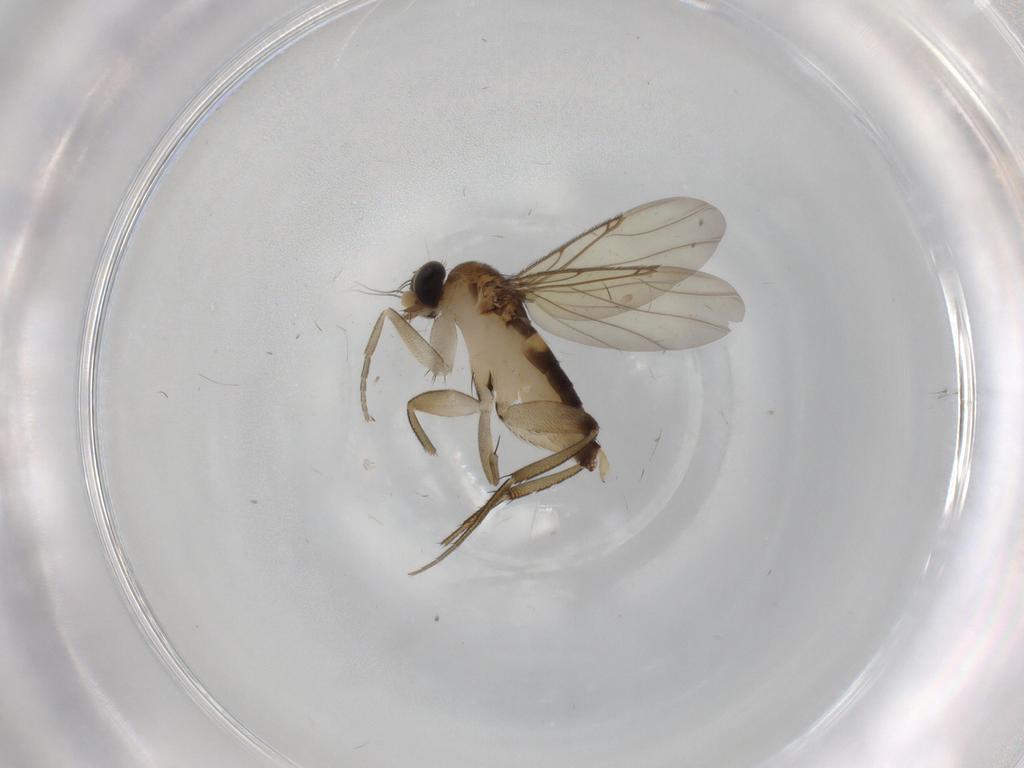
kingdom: Animalia
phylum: Arthropoda
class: Insecta
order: Diptera
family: Phoridae
